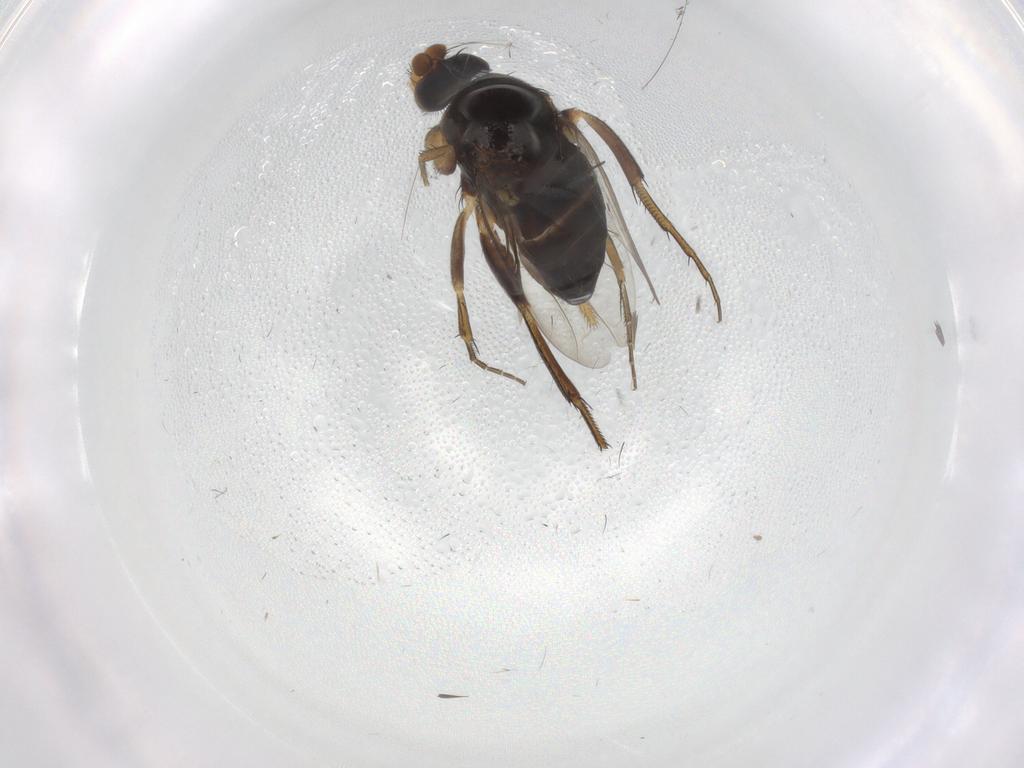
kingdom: Animalia
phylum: Arthropoda
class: Insecta
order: Diptera
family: Phoridae
